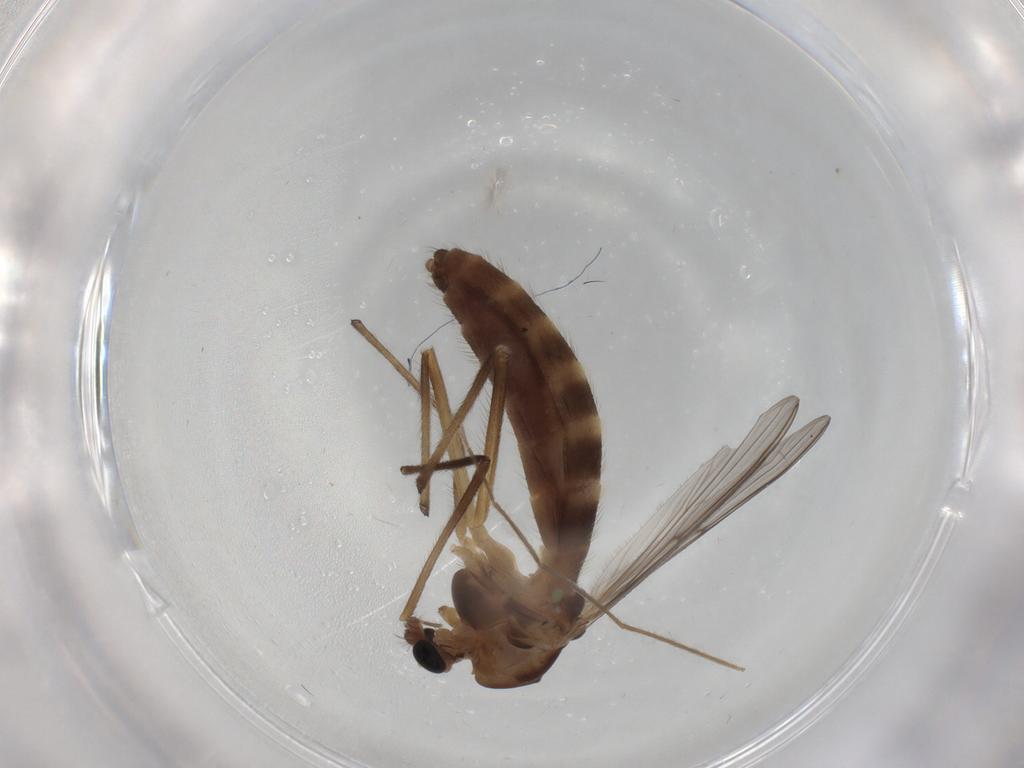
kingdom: Animalia
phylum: Arthropoda
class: Insecta
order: Diptera
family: Chironomidae
